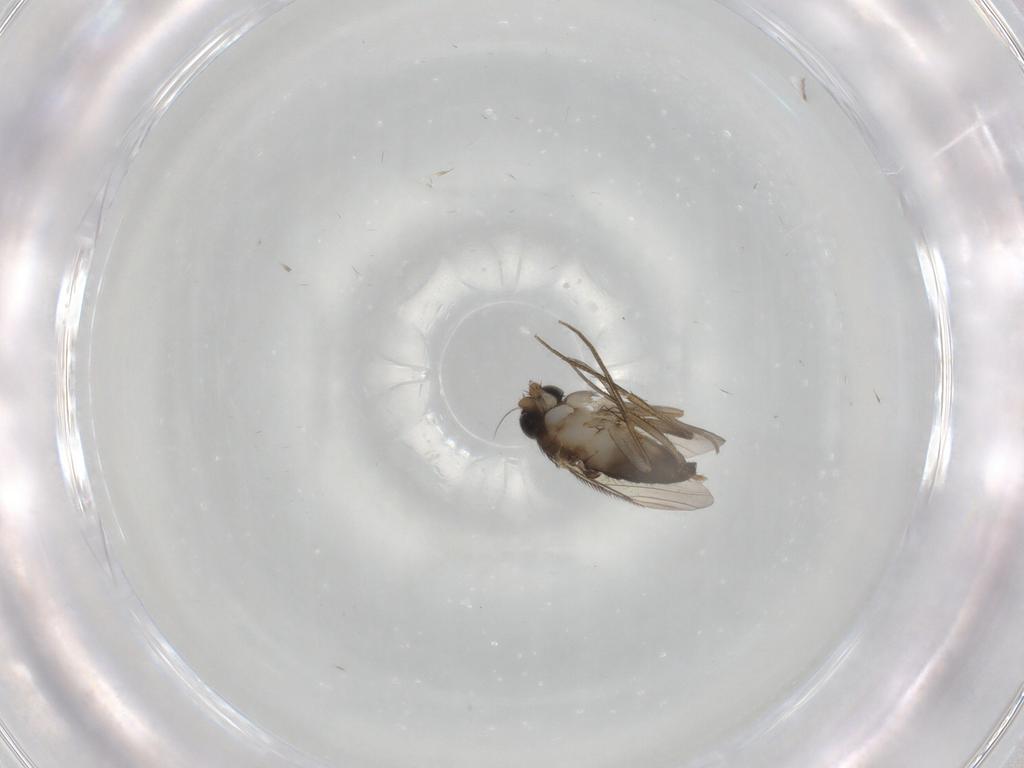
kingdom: Animalia
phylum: Arthropoda
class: Insecta
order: Diptera
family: Phoridae
